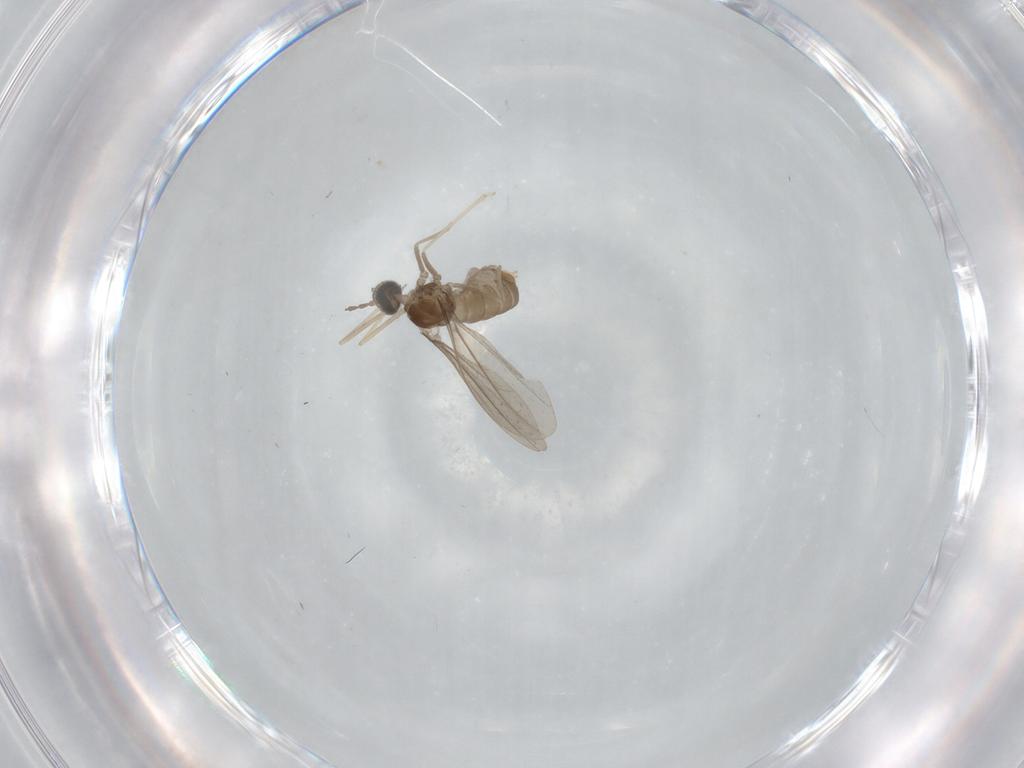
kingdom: Animalia
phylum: Arthropoda
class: Insecta
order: Diptera
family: Cecidomyiidae
